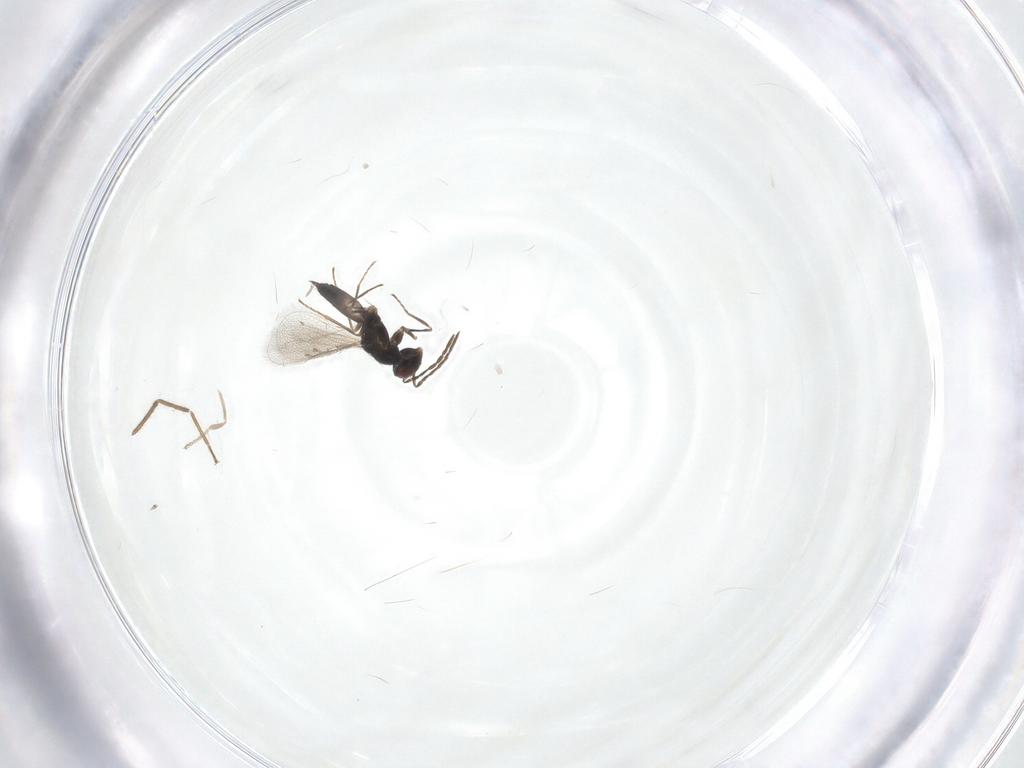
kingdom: Animalia
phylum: Arthropoda
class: Insecta
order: Hymenoptera
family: Eulophidae
